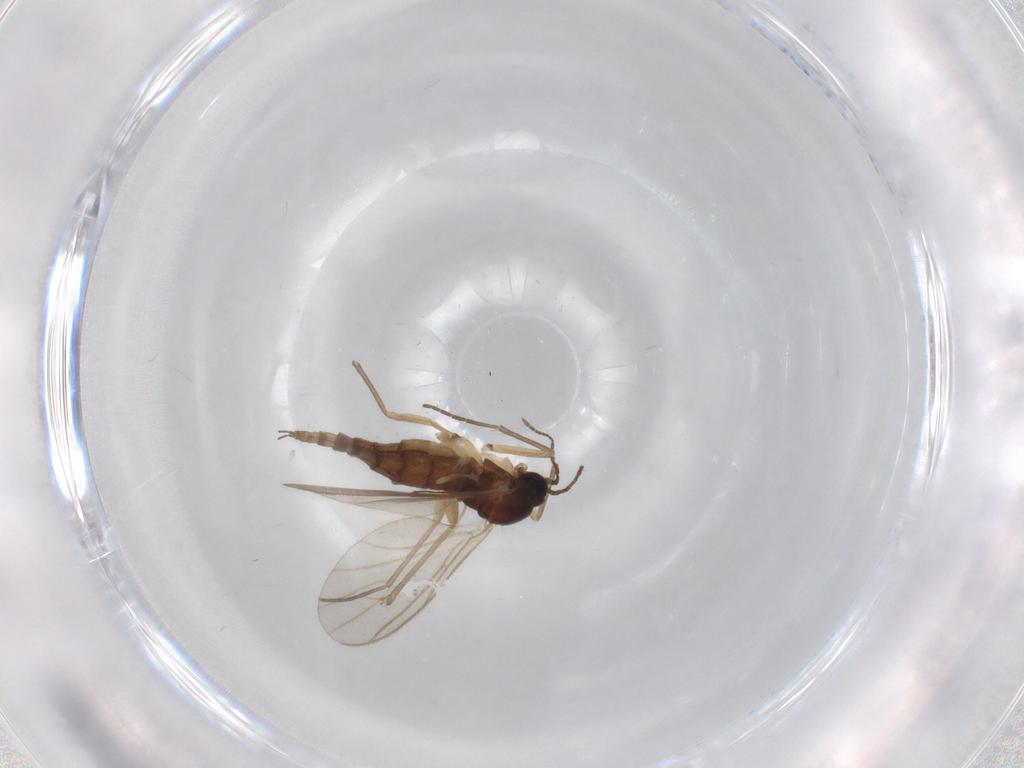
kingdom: Animalia
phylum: Arthropoda
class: Insecta
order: Diptera
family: Sciaridae
